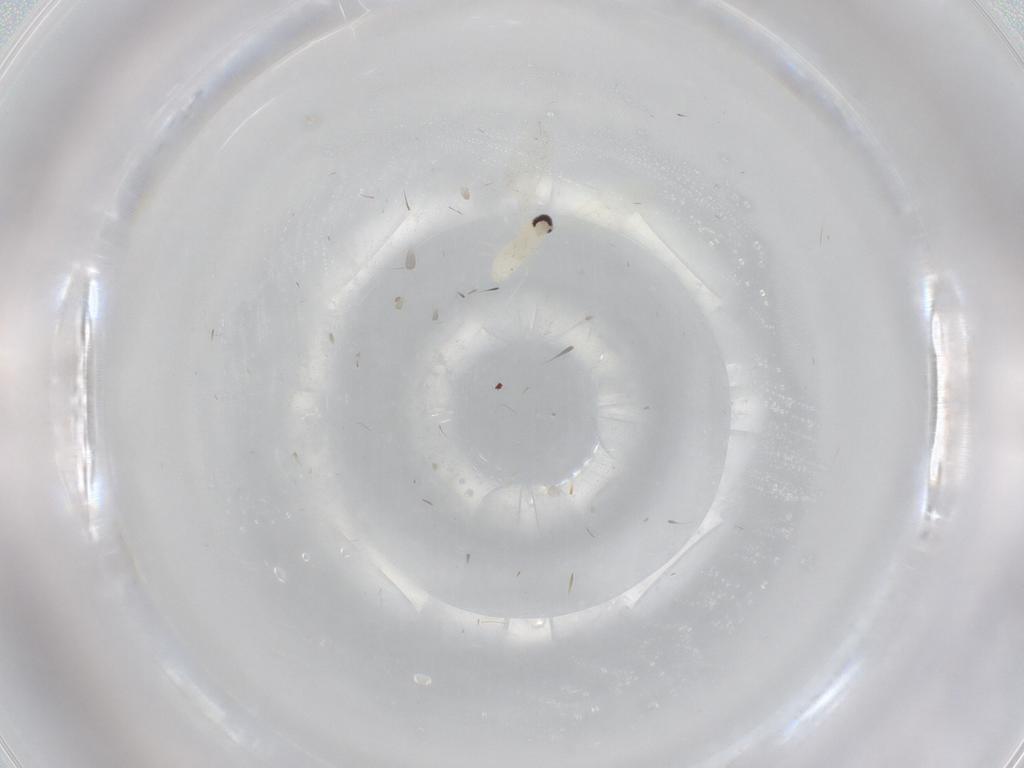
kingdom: Animalia
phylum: Arthropoda
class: Insecta
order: Diptera
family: Cecidomyiidae
